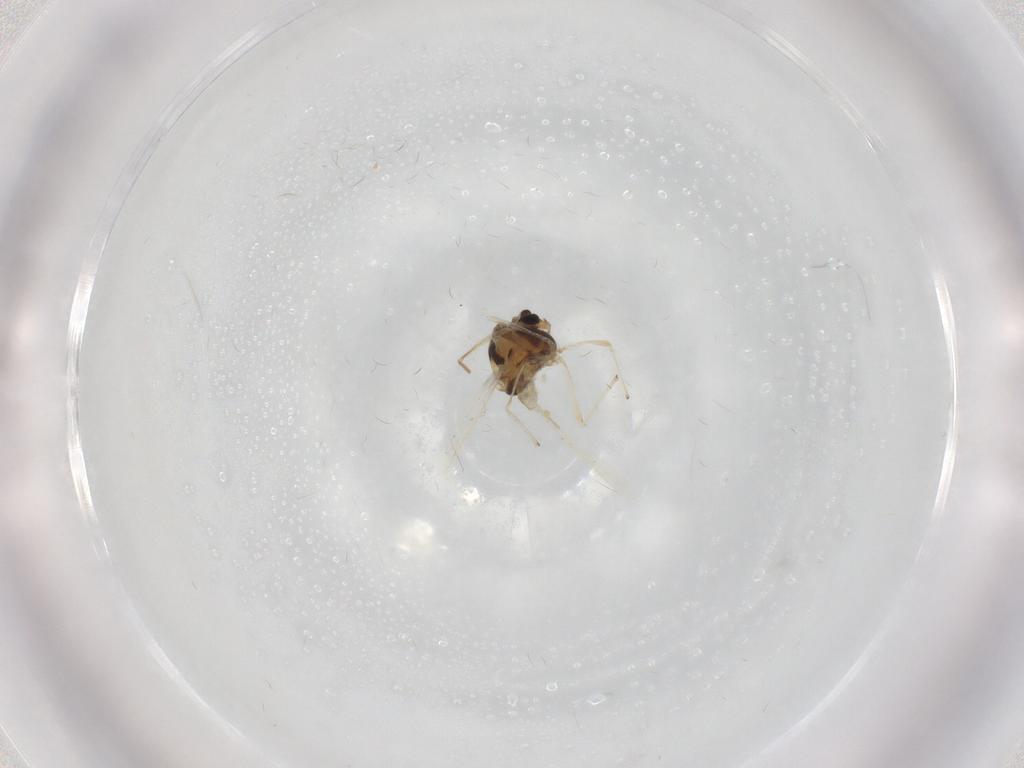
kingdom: Animalia
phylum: Arthropoda
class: Insecta
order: Diptera
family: Chironomidae
